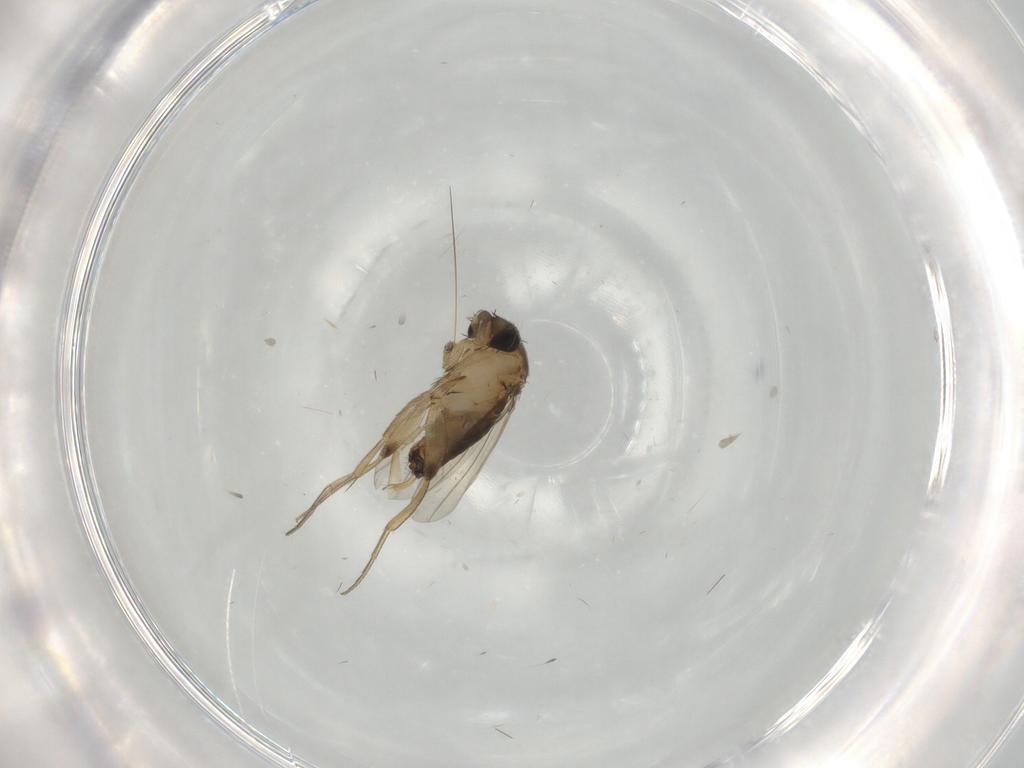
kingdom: Animalia
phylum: Arthropoda
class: Insecta
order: Diptera
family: Phoridae
